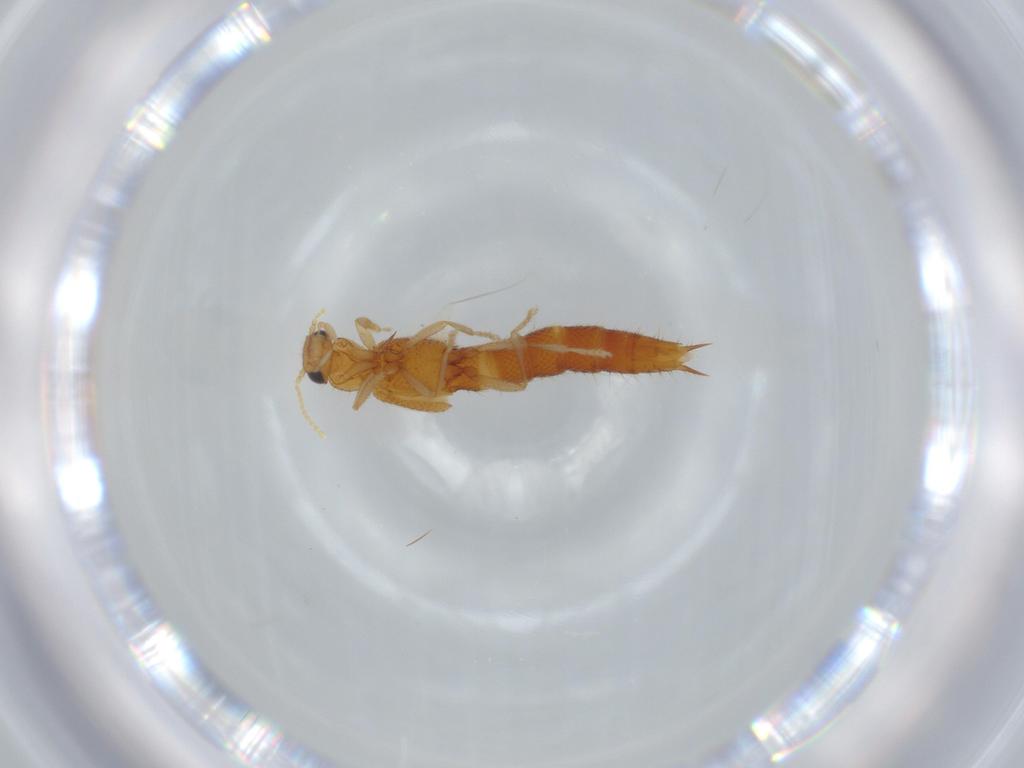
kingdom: Animalia
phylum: Arthropoda
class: Insecta
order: Coleoptera
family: Staphylinidae
